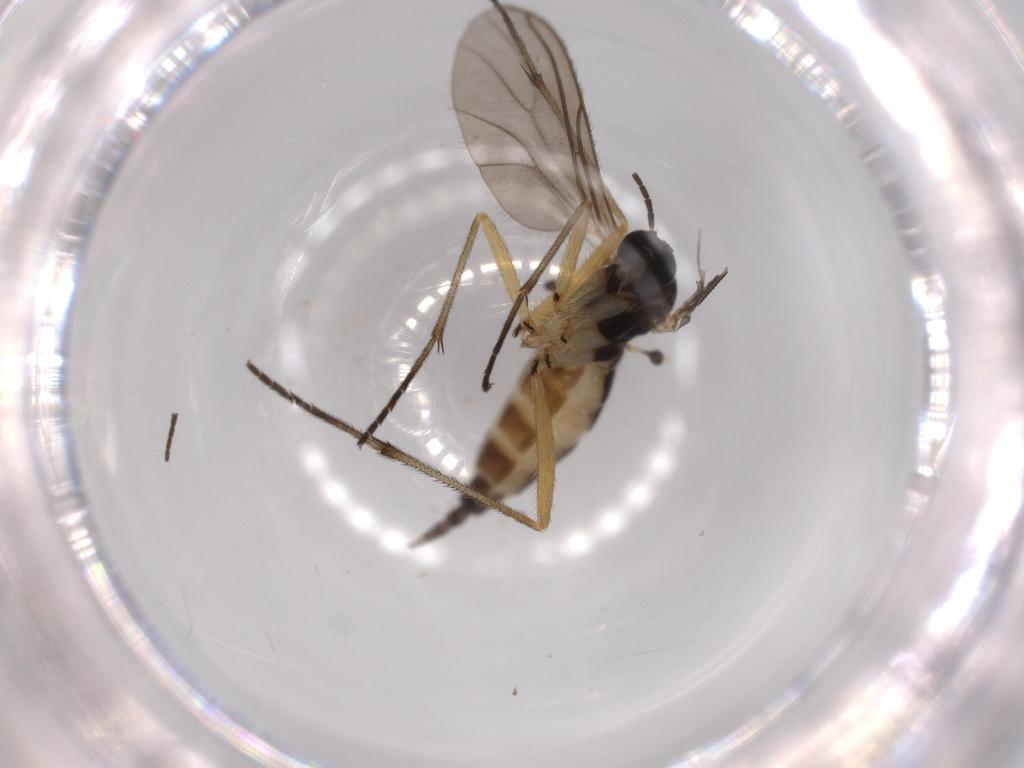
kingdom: Animalia
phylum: Arthropoda
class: Insecta
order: Diptera
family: Sciaridae
